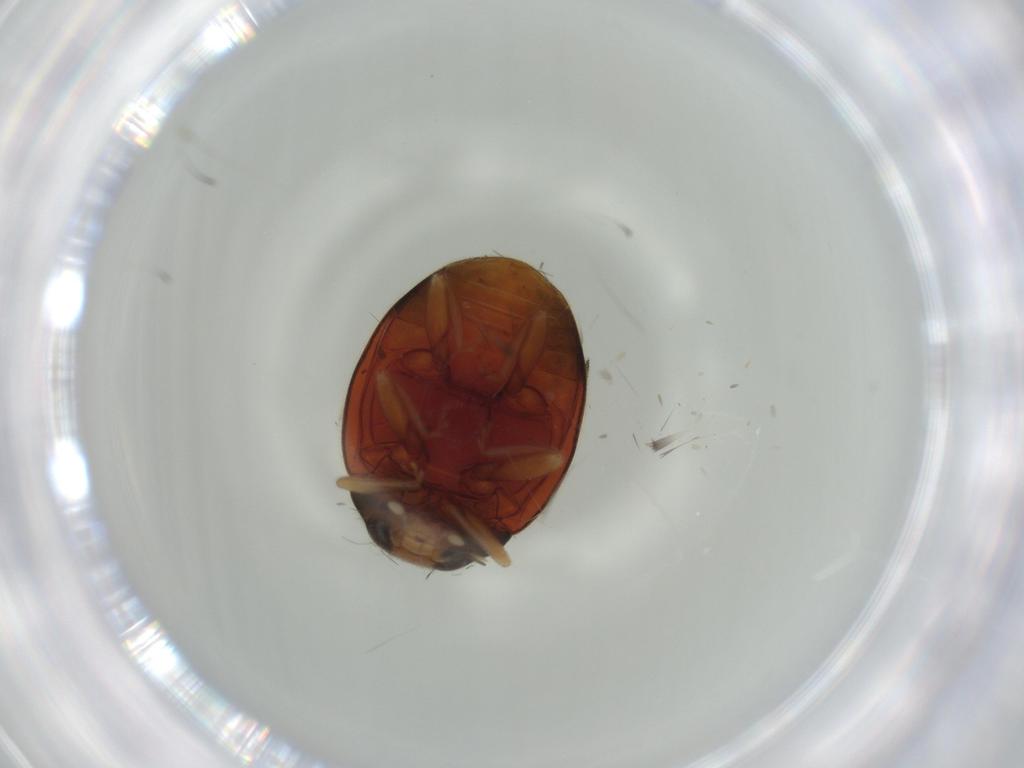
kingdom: Animalia
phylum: Arthropoda
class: Insecta
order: Coleoptera
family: Coccinellidae
